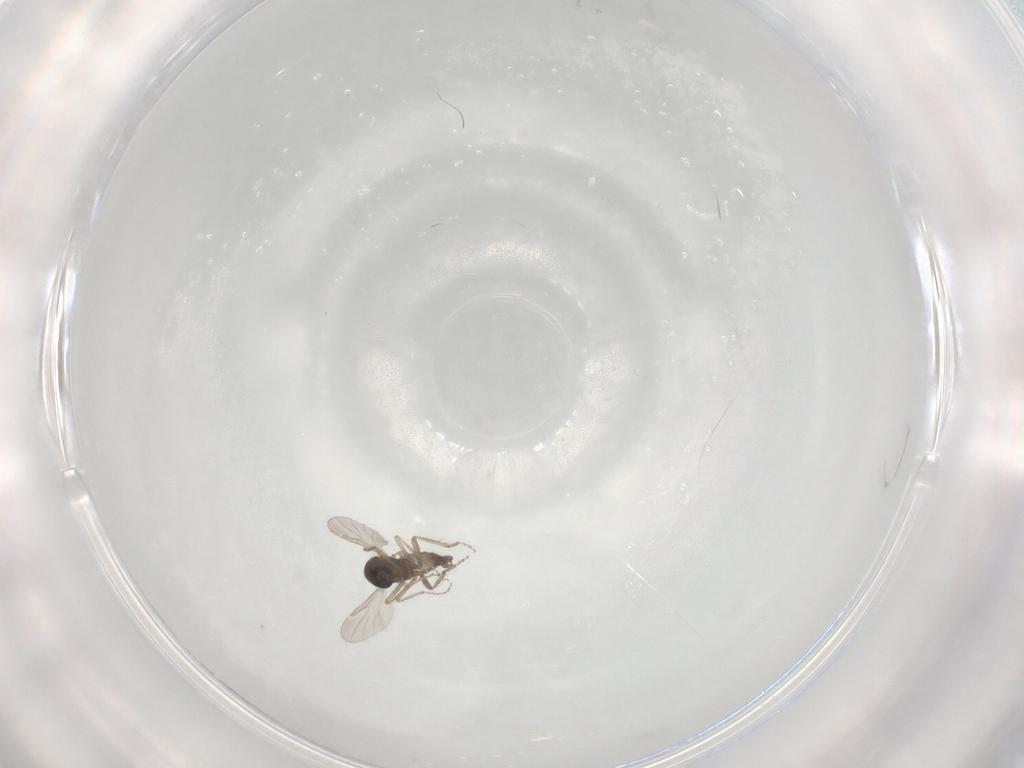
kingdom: Animalia
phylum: Arthropoda
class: Insecta
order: Diptera
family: Ceratopogonidae
